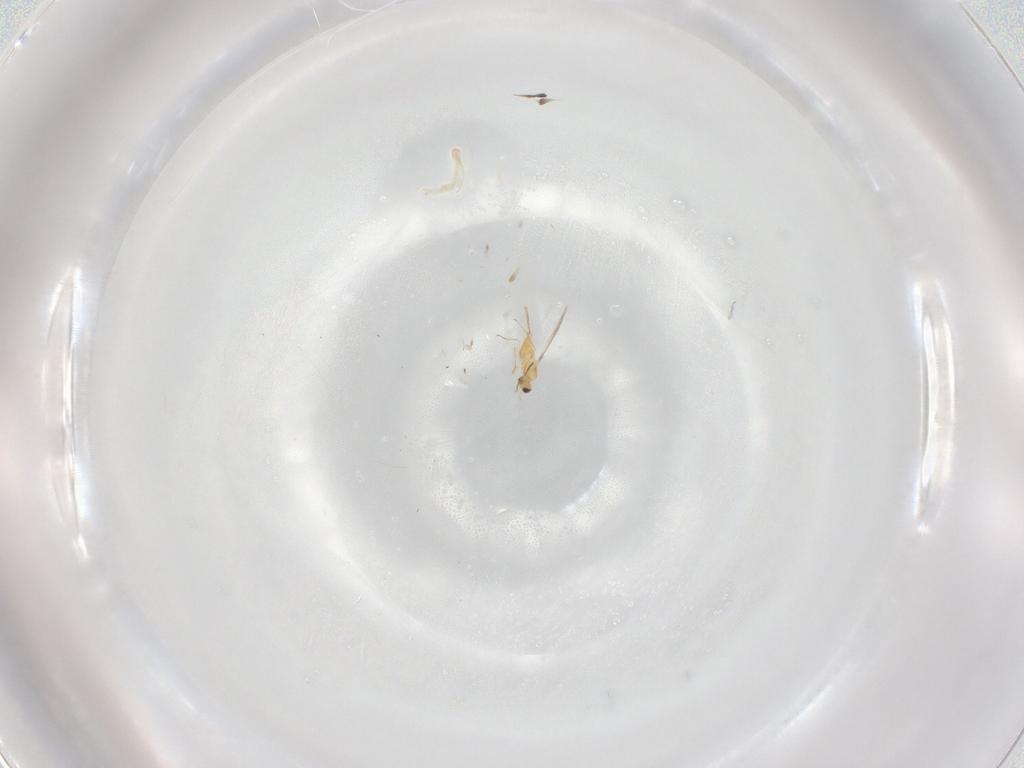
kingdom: Animalia
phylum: Arthropoda
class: Insecta
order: Hymenoptera
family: Mymaridae
